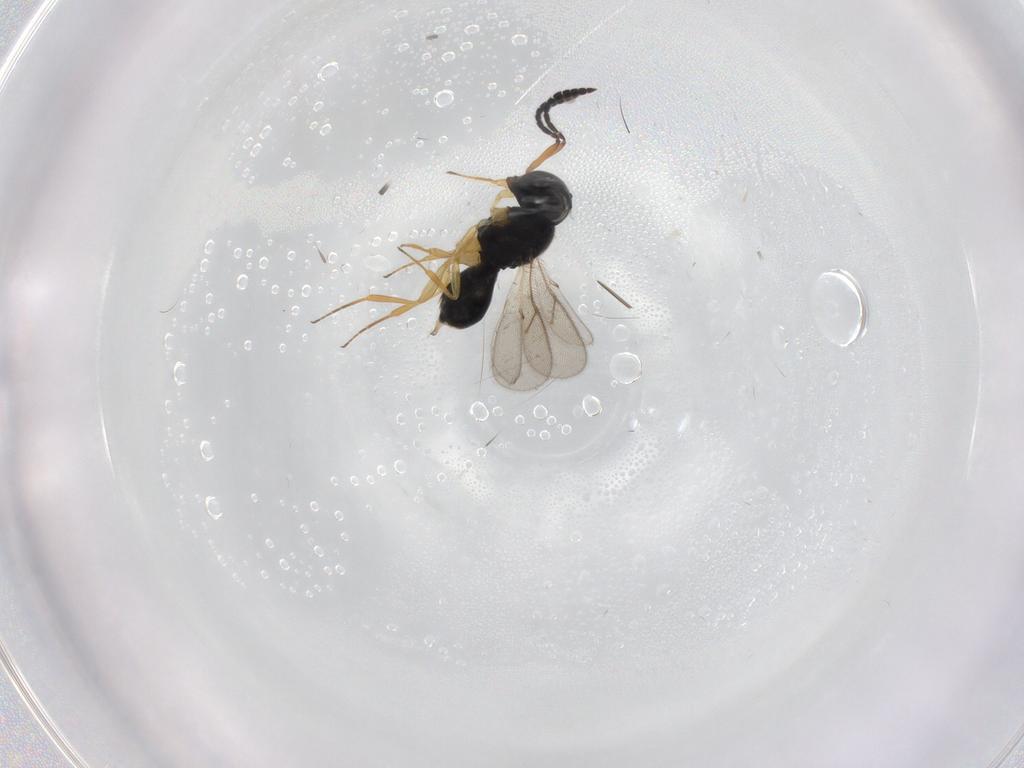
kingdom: Animalia
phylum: Arthropoda
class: Insecta
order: Hymenoptera
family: Scelionidae
